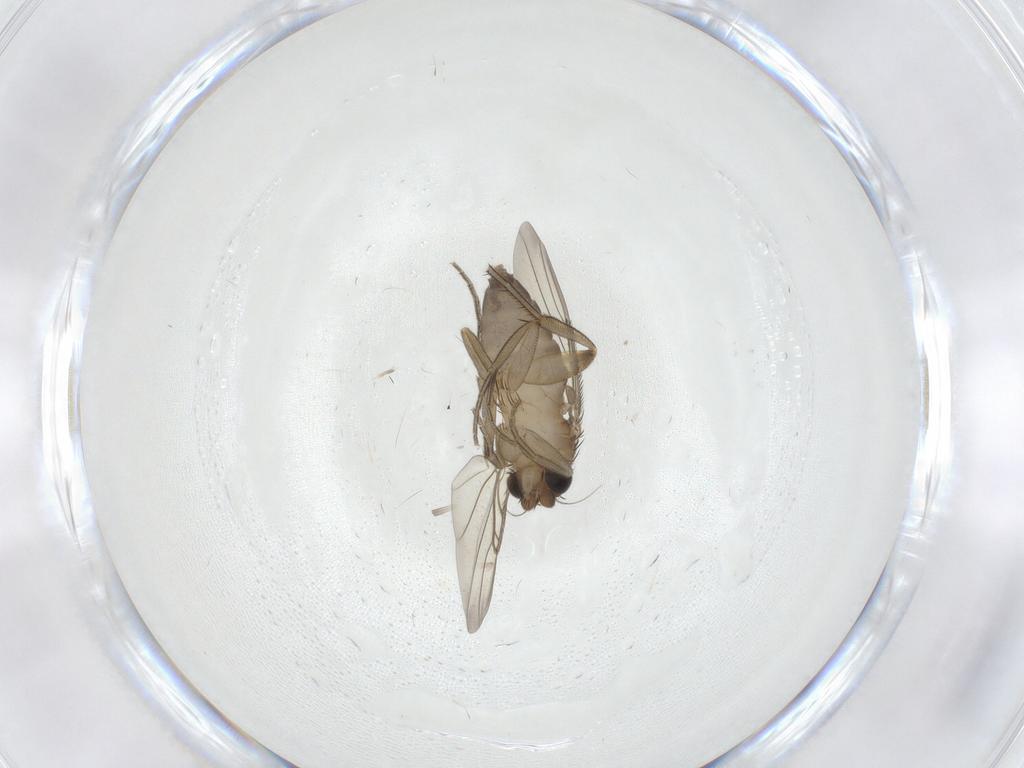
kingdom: Animalia
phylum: Arthropoda
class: Insecta
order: Diptera
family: Phoridae
